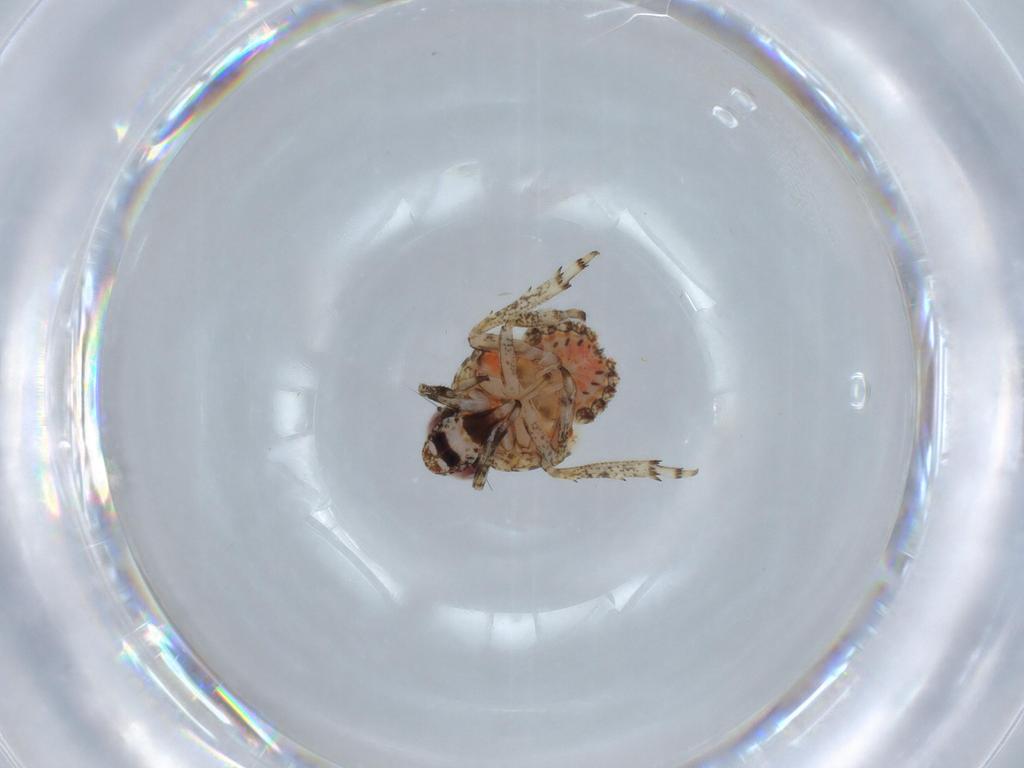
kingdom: Animalia
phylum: Arthropoda
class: Insecta
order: Hemiptera
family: Issidae
